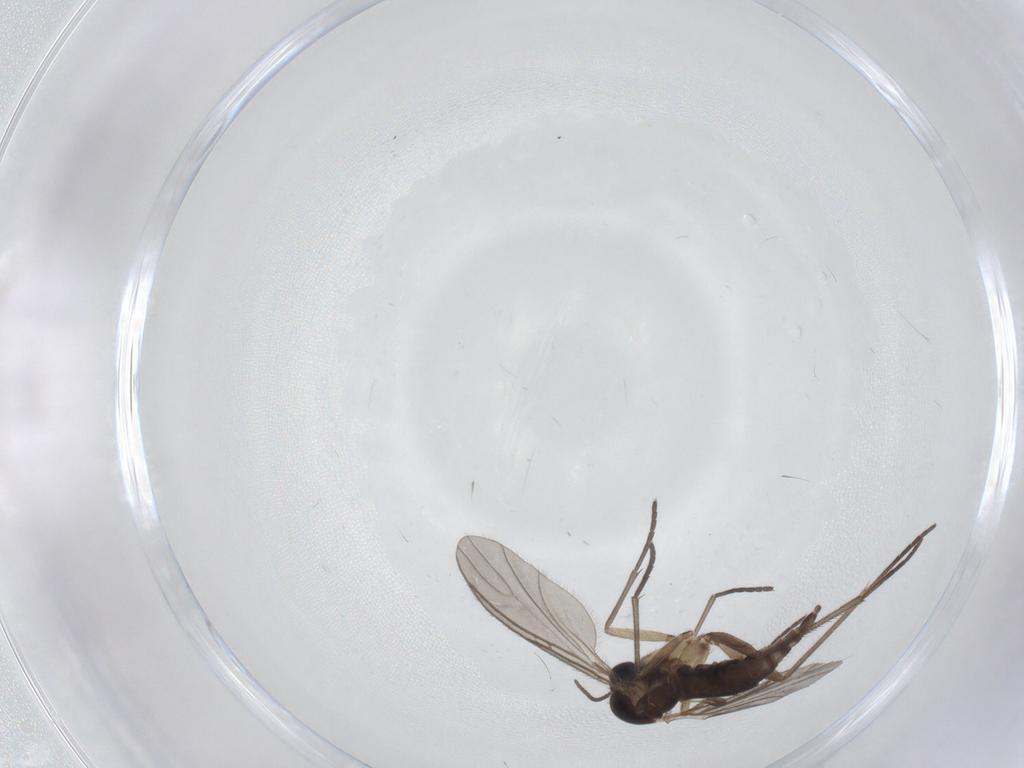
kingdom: Animalia
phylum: Arthropoda
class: Insecta
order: Diptera
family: Sciaridae
